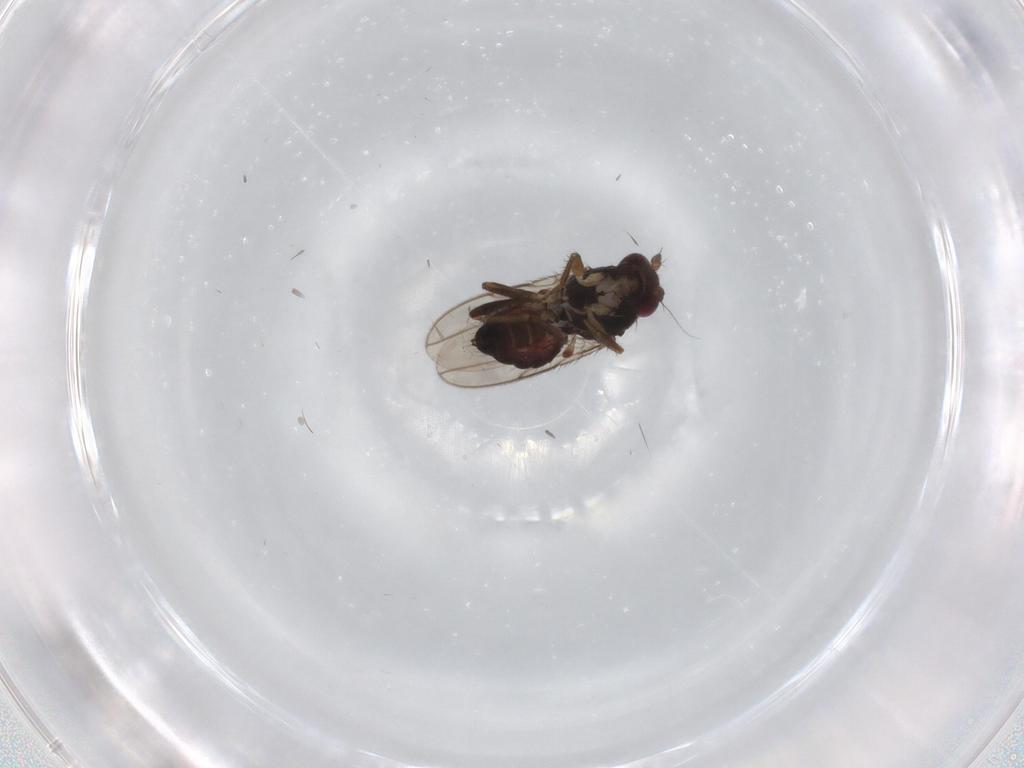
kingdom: Animalia
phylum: Arthropoda
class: Insecta
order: Diptera
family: Sphaeroceridae
